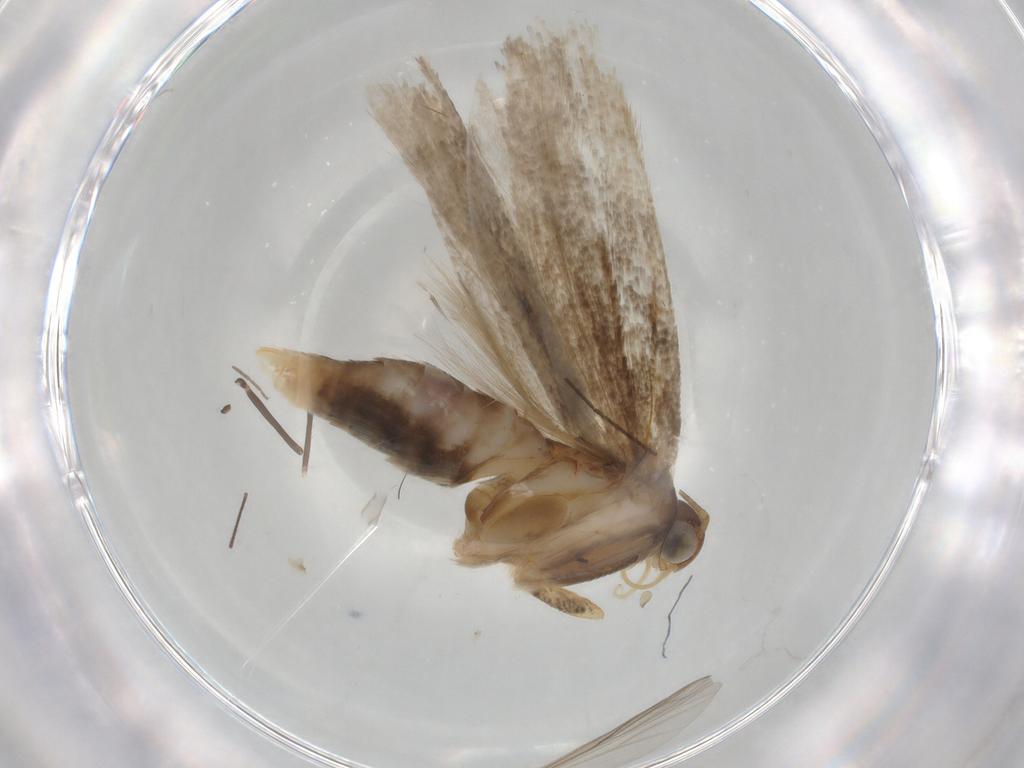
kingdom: Animalia
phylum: Arthropoda
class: Insecta
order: Lepidoptera
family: Gelechiidae
